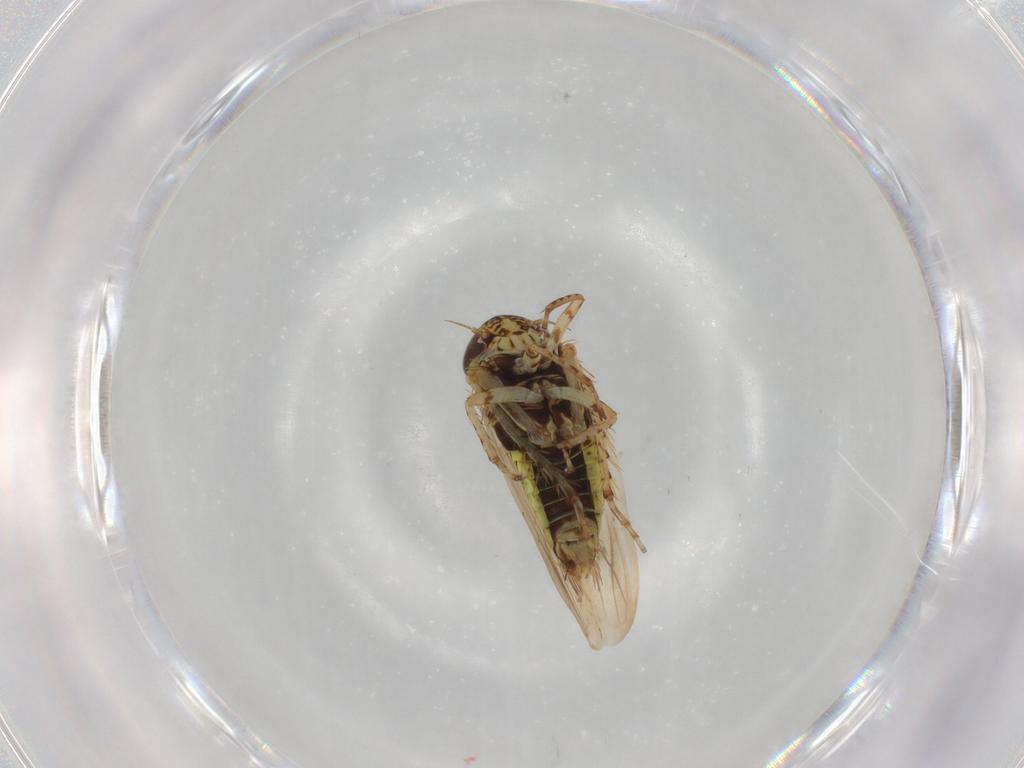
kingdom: Animalia
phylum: Arthropoda
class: Insecta
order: Hemiptera
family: Cicadellidae
